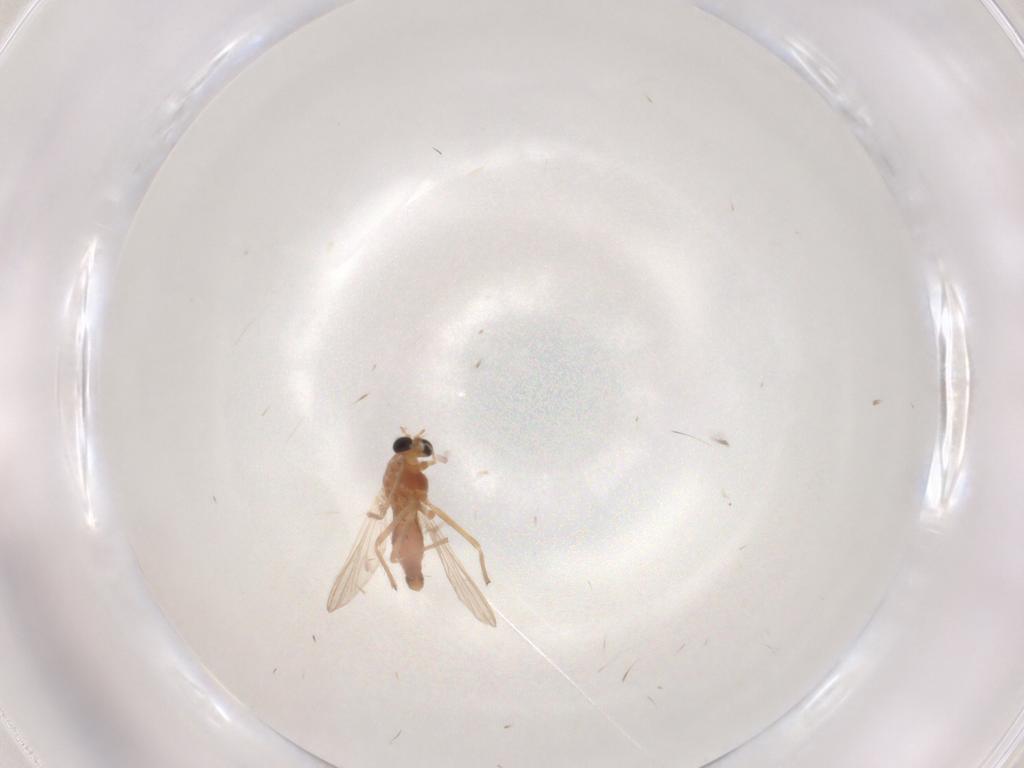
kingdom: Animalia
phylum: Arthropoda
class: Insecta
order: Diptera
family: Chironomidae
